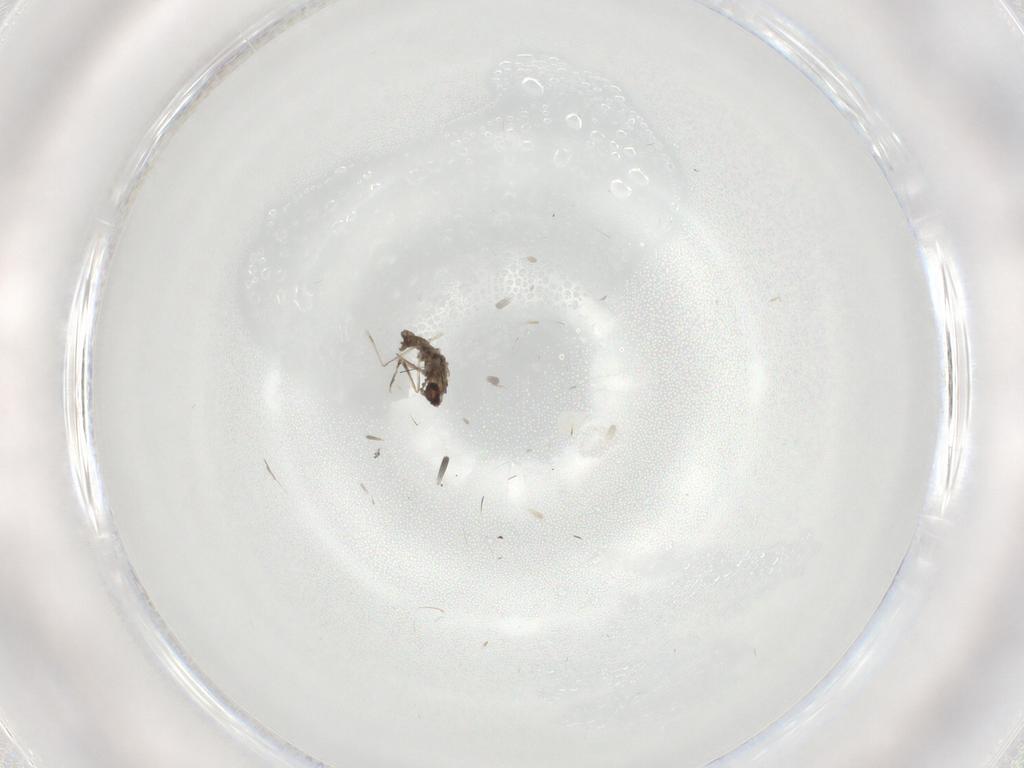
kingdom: Animalia
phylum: Arthropoda
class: Insecta
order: Diptera
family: Cecidomyiidae
